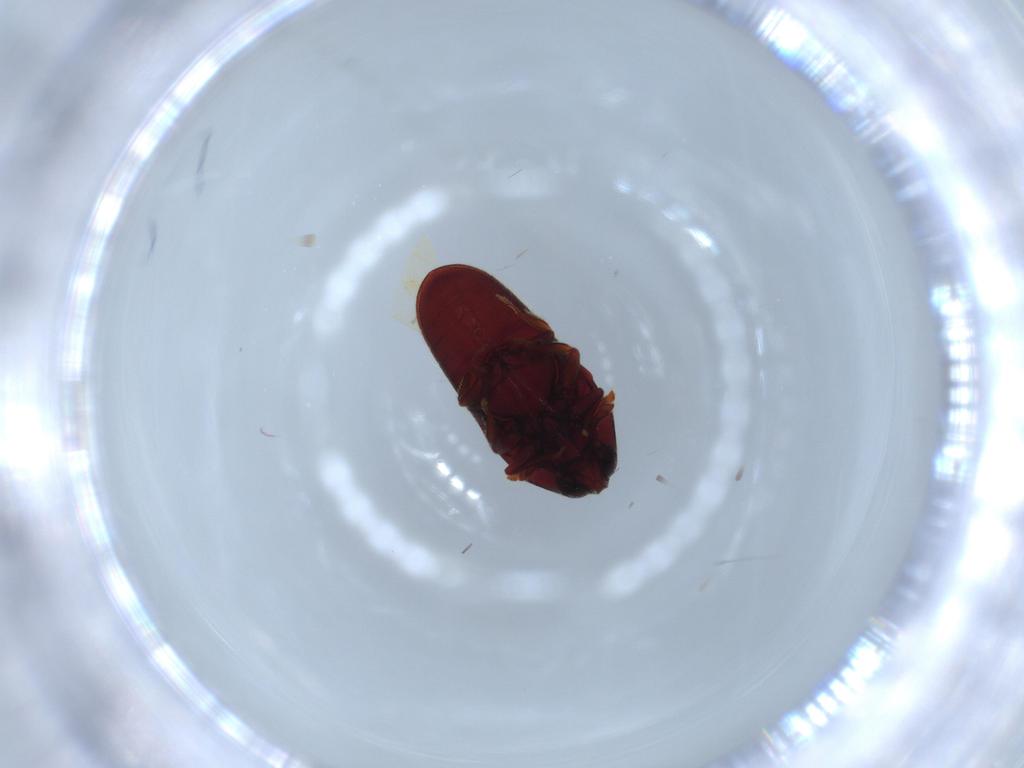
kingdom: Animalia
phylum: Arthropoda
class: Insecta
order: Coleoptera
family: Throscidae
